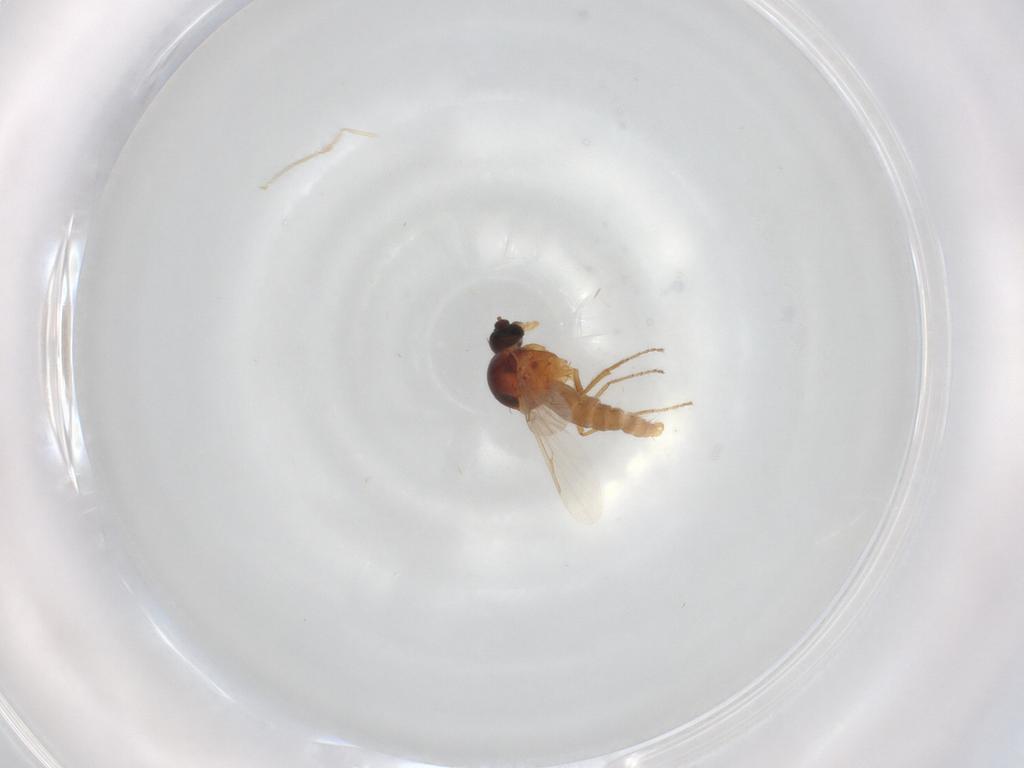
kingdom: Animalia
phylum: Arthropoda
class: Insecta
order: Diptera
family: Ceratopogonidae
